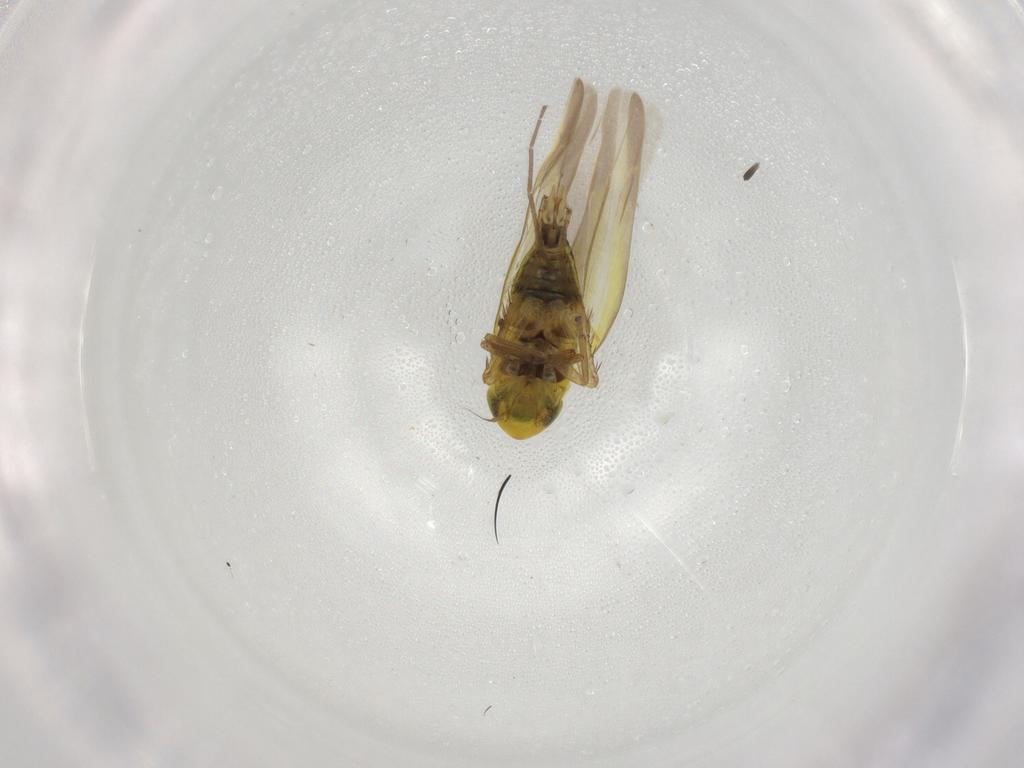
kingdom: Animalia
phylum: Arthropoda
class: Insecta
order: Hemiptera
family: Cicadellidae
